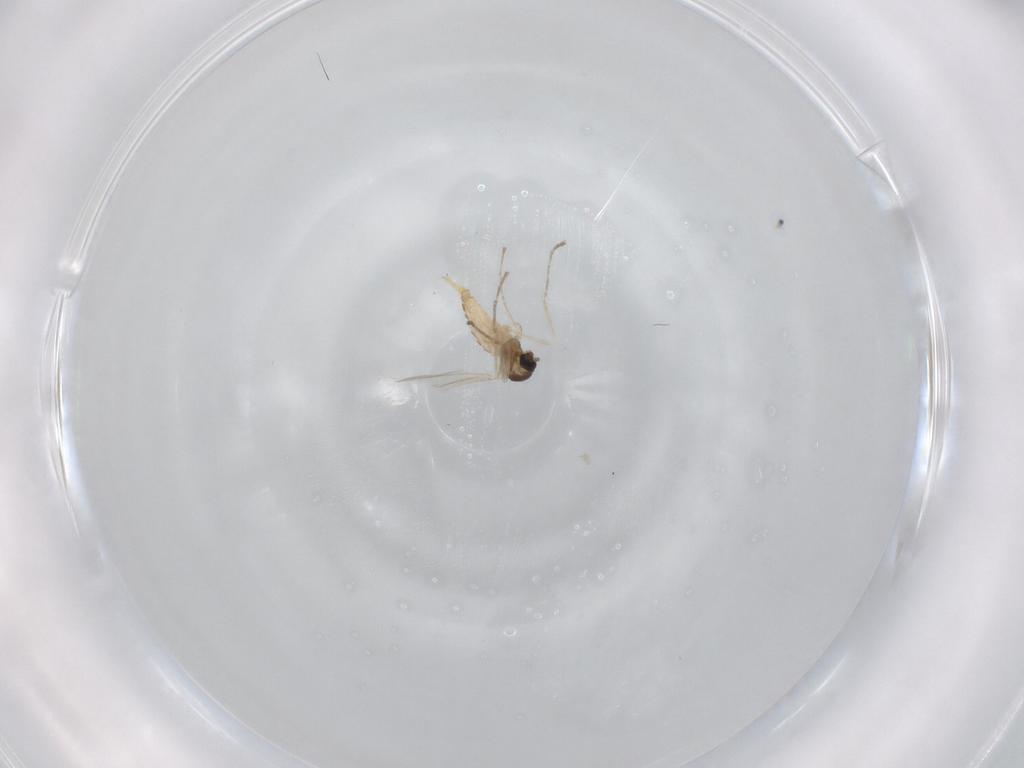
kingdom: Animalia
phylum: Arthropoda
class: Insecta
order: Diptera
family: Cecidomyiidae
